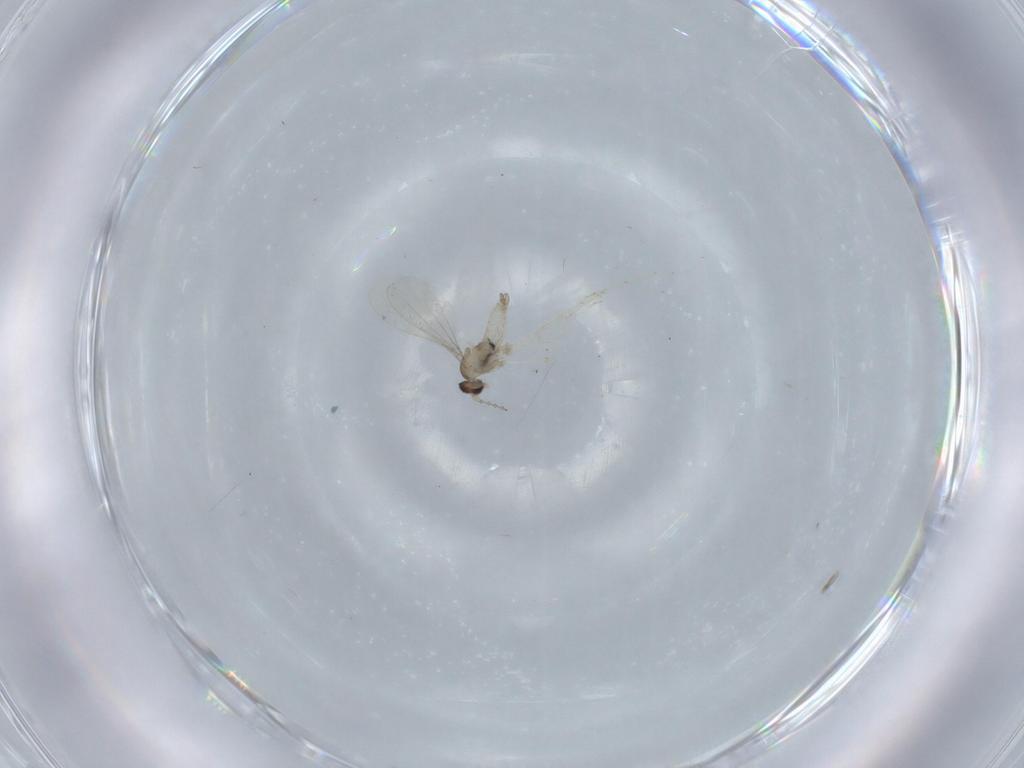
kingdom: Animalia
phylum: Arthropoda
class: Insecta
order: Diptera
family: Cecidomyiidae
